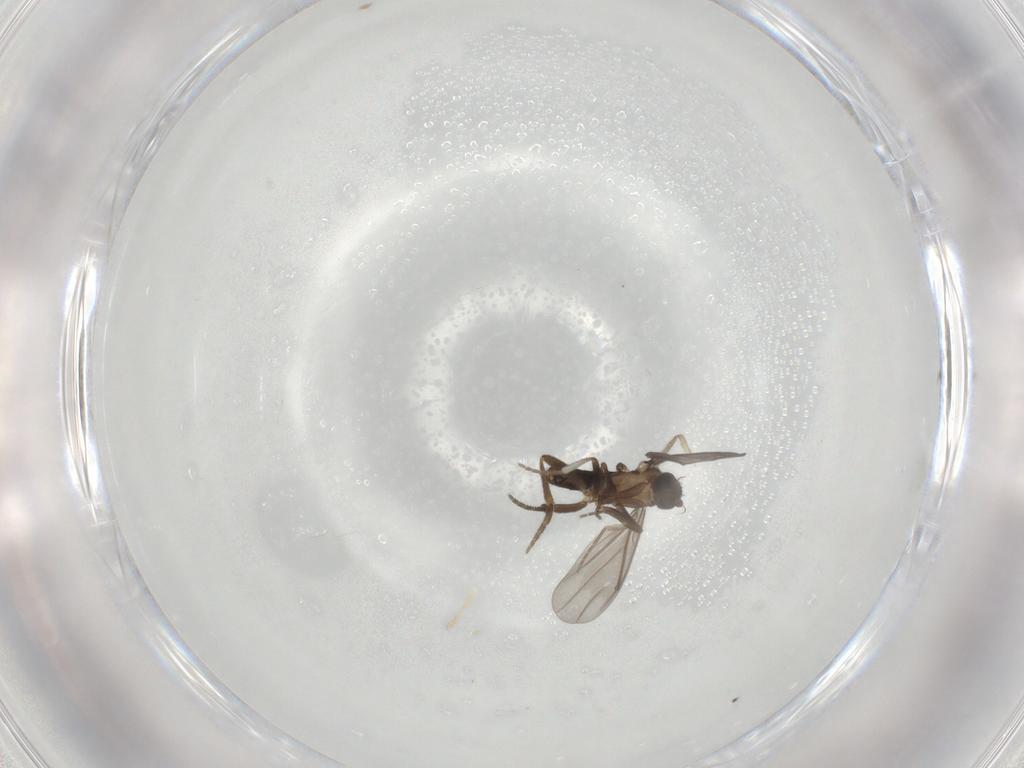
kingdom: Animalia
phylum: Arthropoda
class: Insecta
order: Diptera
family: Phoridae
